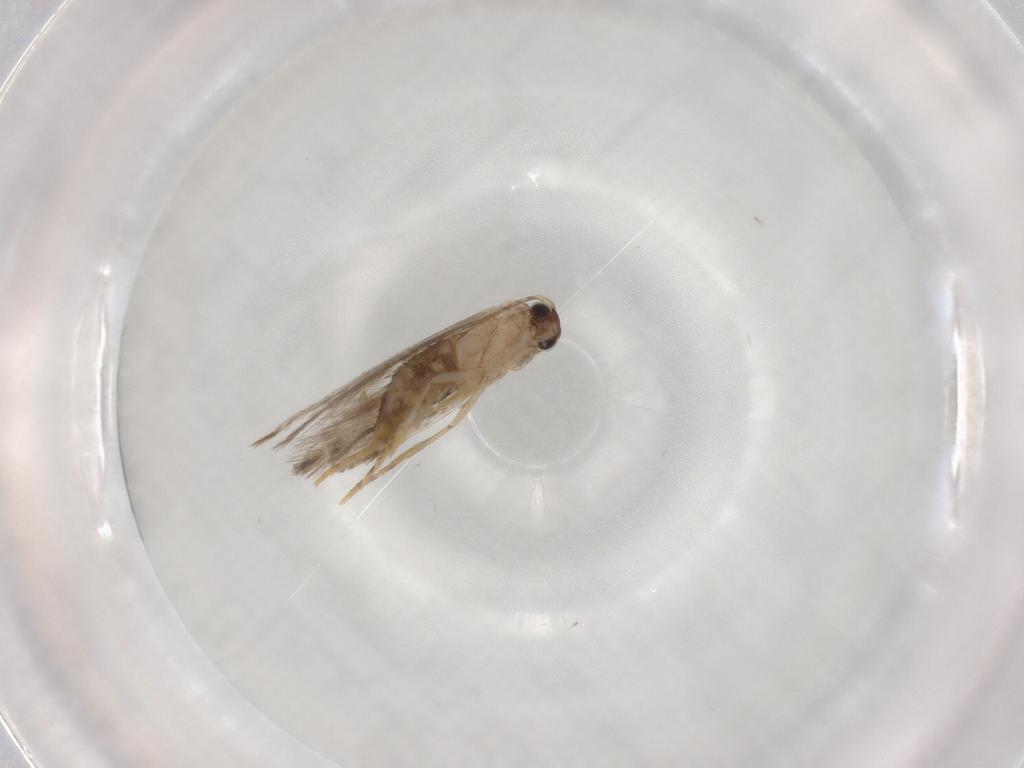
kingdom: Animalia
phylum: Arthropoda
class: Insecta
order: Lepidoptera
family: Tineidae
